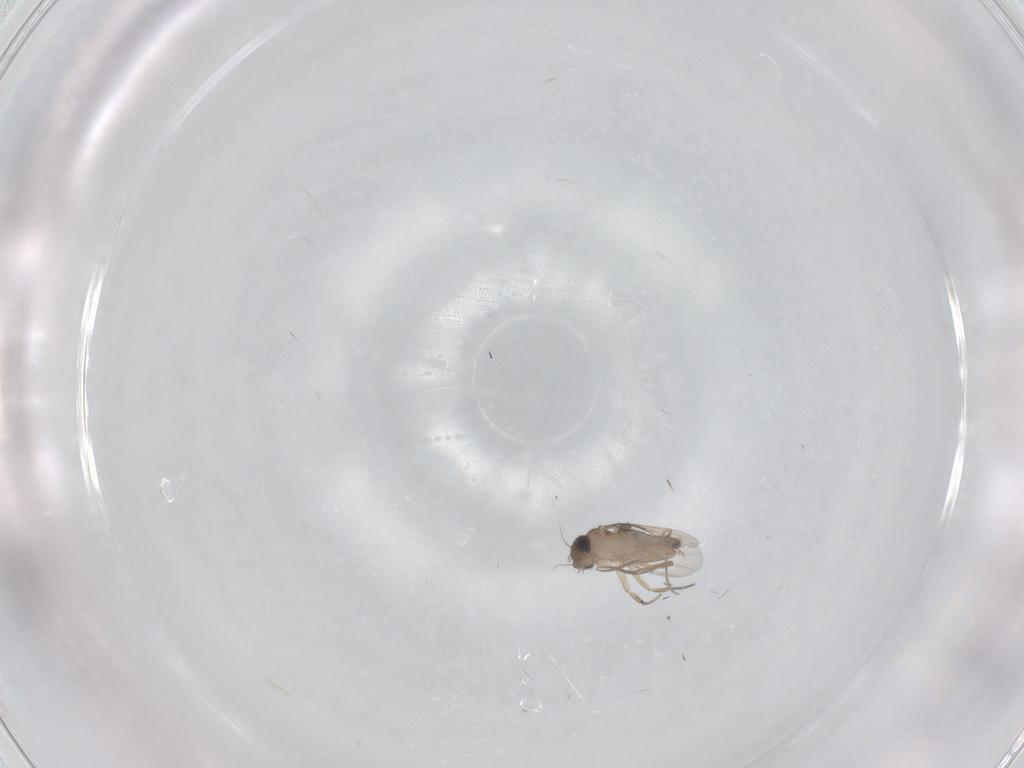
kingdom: Animalia
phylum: Arthropoda
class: Insecta
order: Diptera
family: Phoridae
